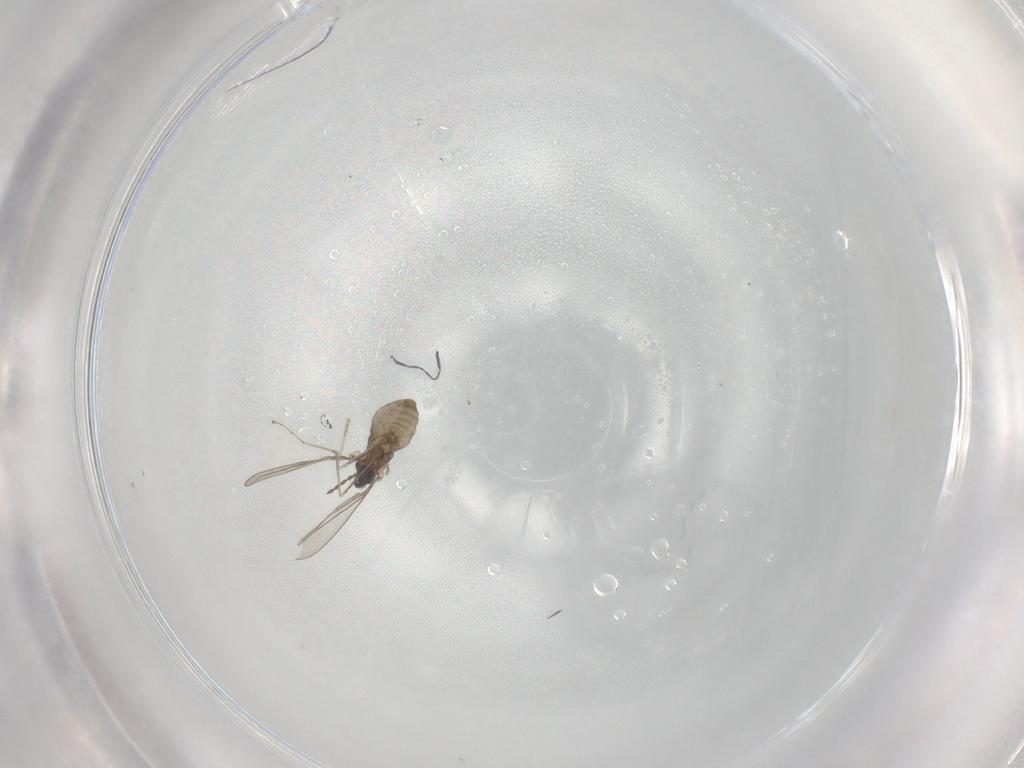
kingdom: Animalia
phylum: Arthropoda
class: Insecta
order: Diptera
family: Cecidomyiidae
